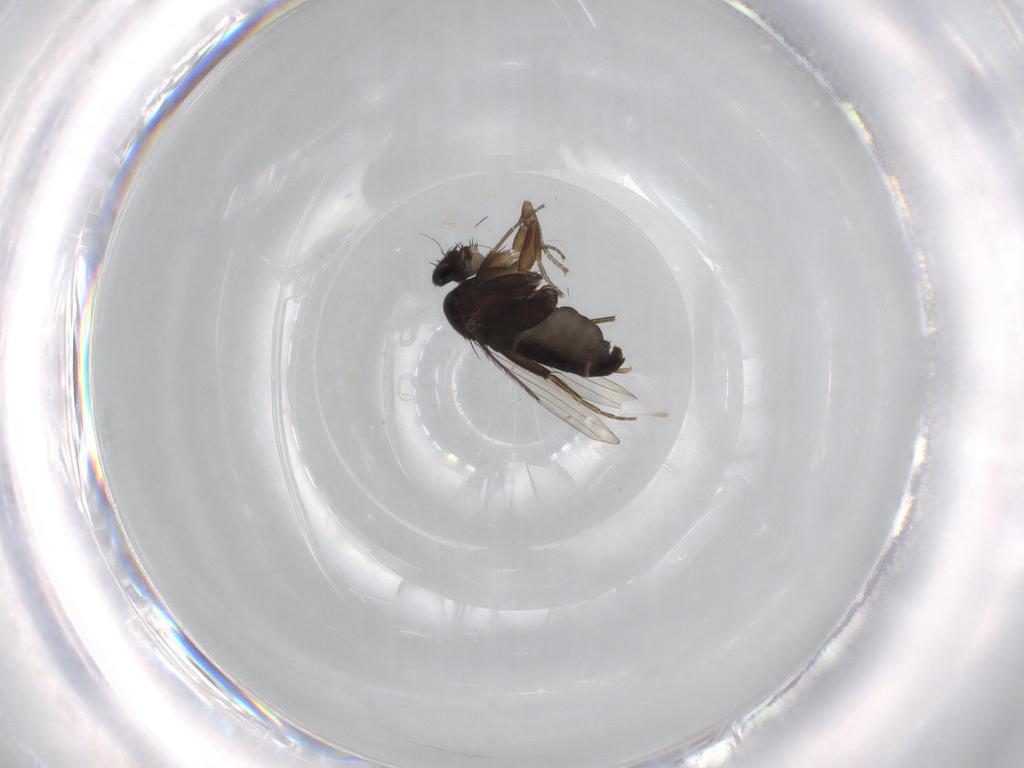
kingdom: Animalia
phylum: Arthropoda
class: Insecta
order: Diptera
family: Phoridae
